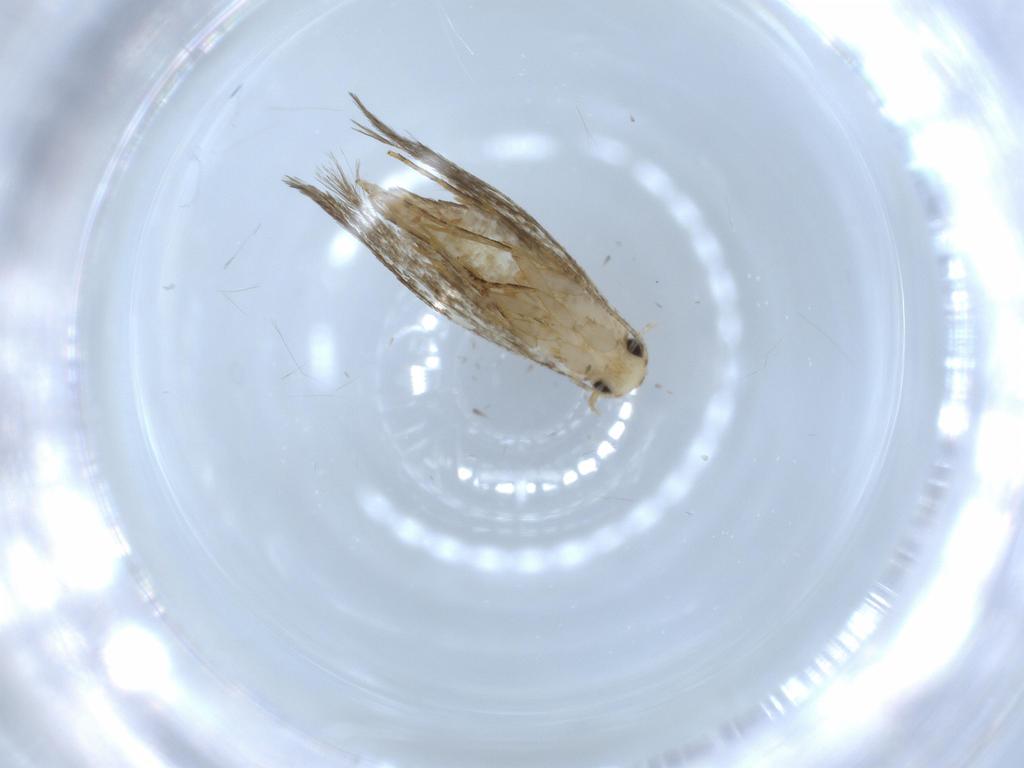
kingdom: Animalia
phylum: Arthropoda
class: Insecta
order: Lepidoptera
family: Tineidae
